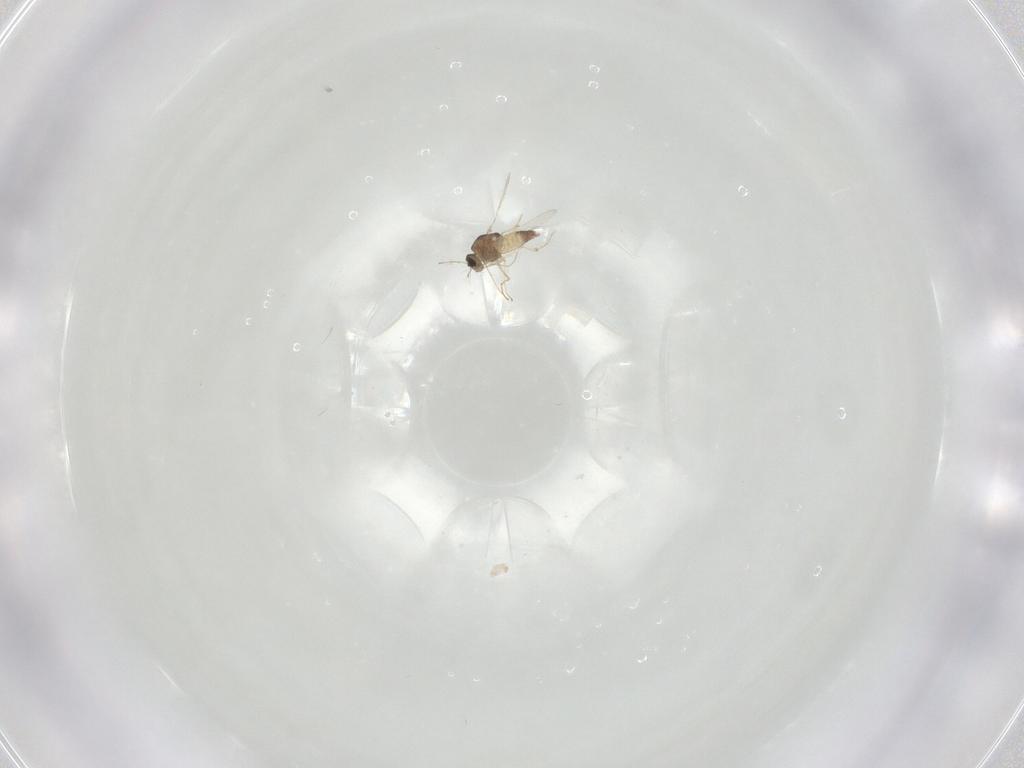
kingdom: Animalia
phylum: Arthropoda
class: Insecta
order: Diptera
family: Chironomidae
